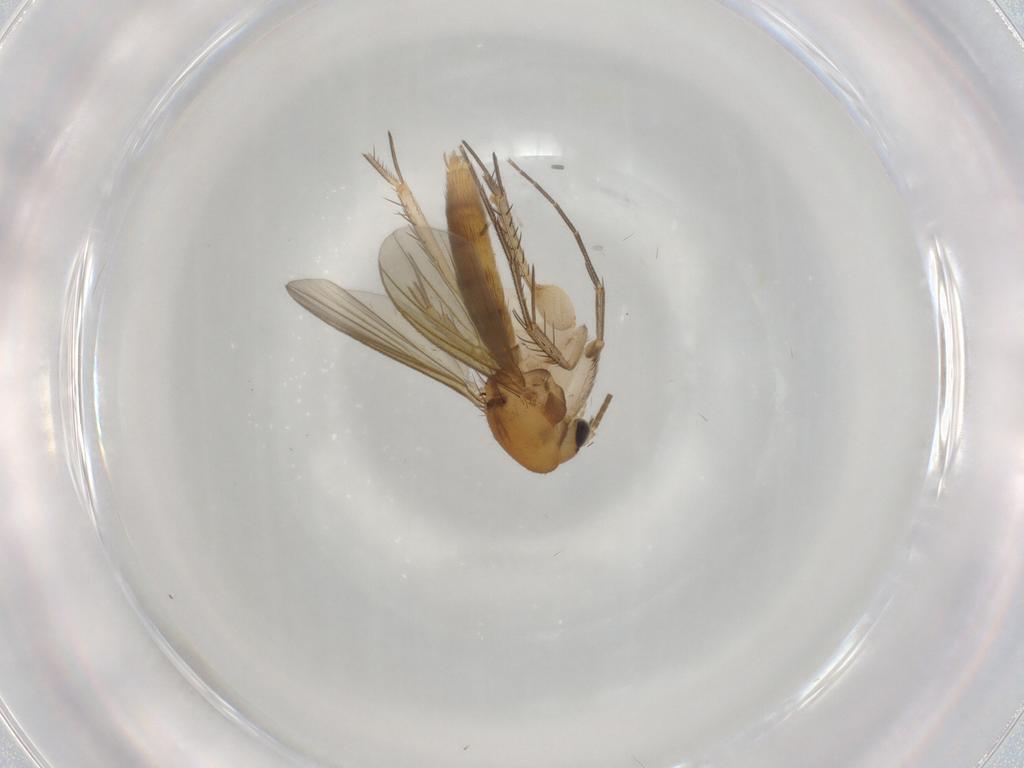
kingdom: Animalia
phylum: Arthropoda
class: Insecta
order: Diptera
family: Mycetophilidae
